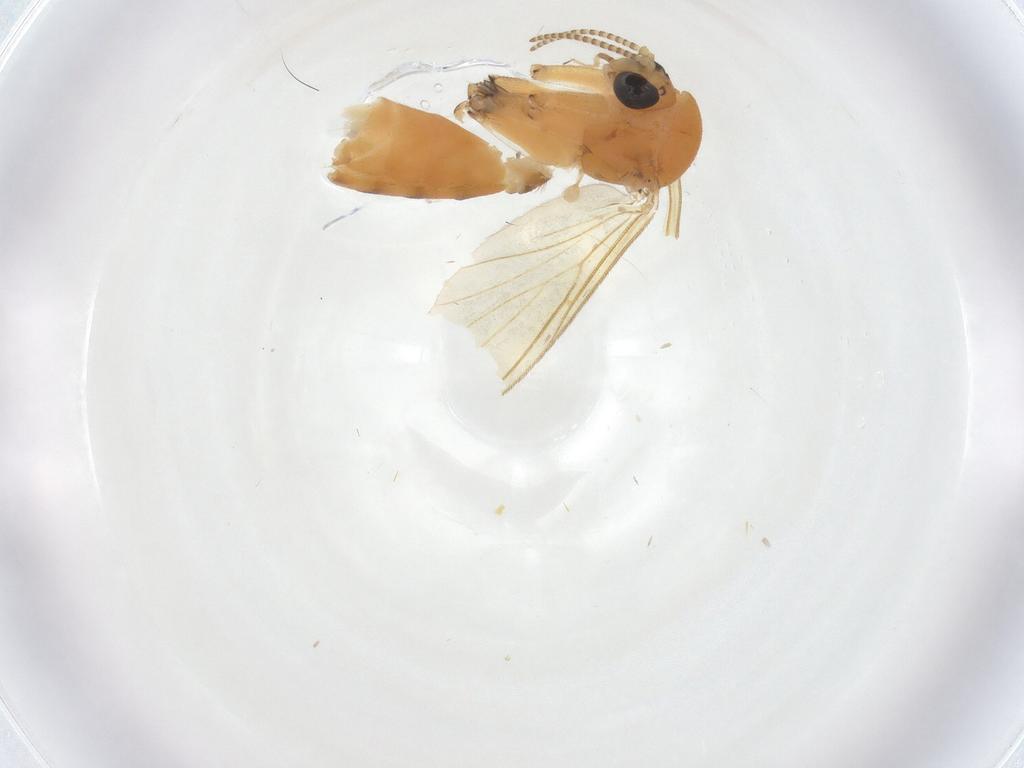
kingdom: Animalia
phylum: Arthropoda
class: Insecta
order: Diptera
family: Mycetophilidae
